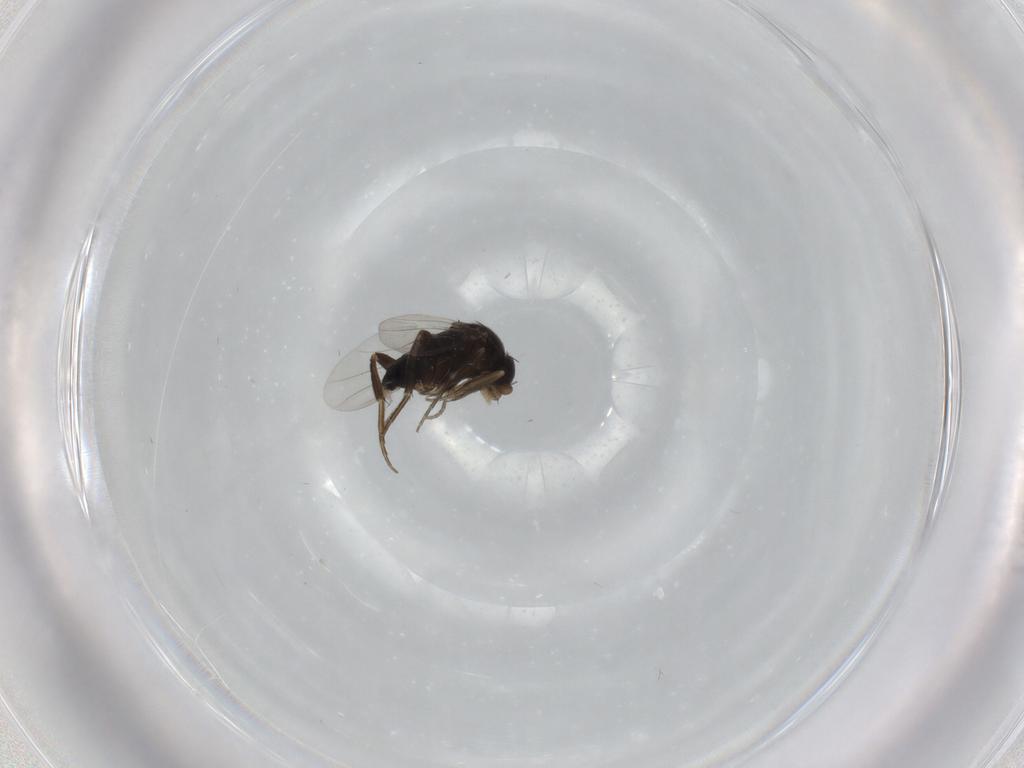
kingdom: Animalia
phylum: Arthropoda
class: Insecta
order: Diptera
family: Phoridae
